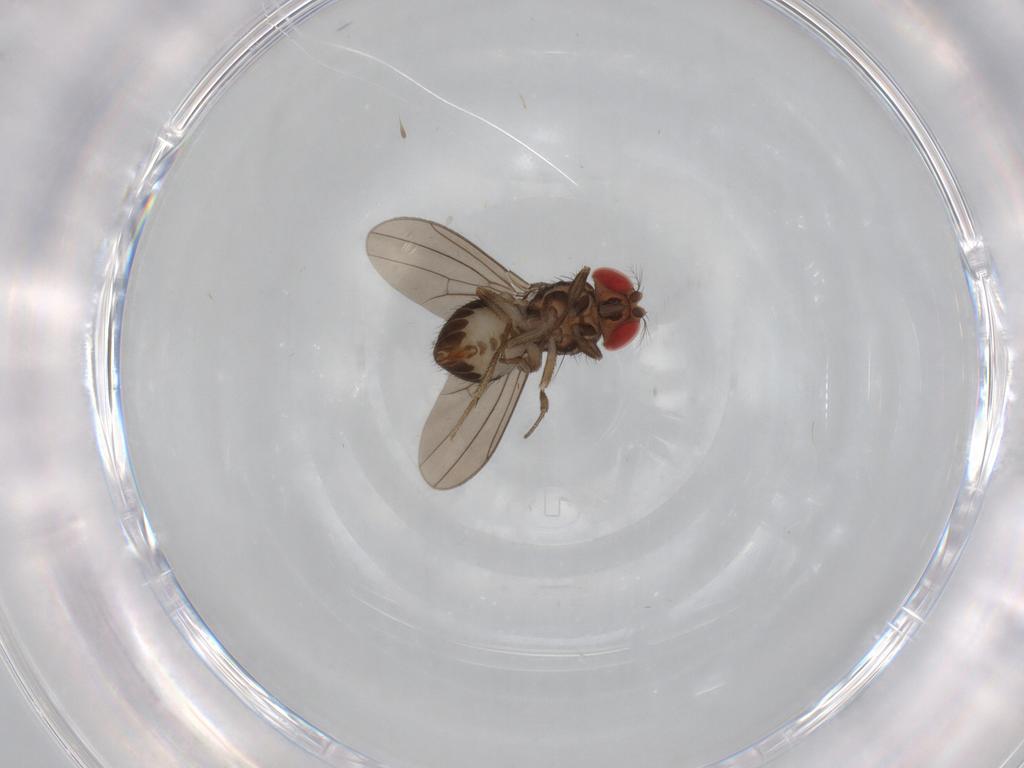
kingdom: Animalia
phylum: Arthropoda
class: Insecta
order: Diptera
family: Drosophilidae
